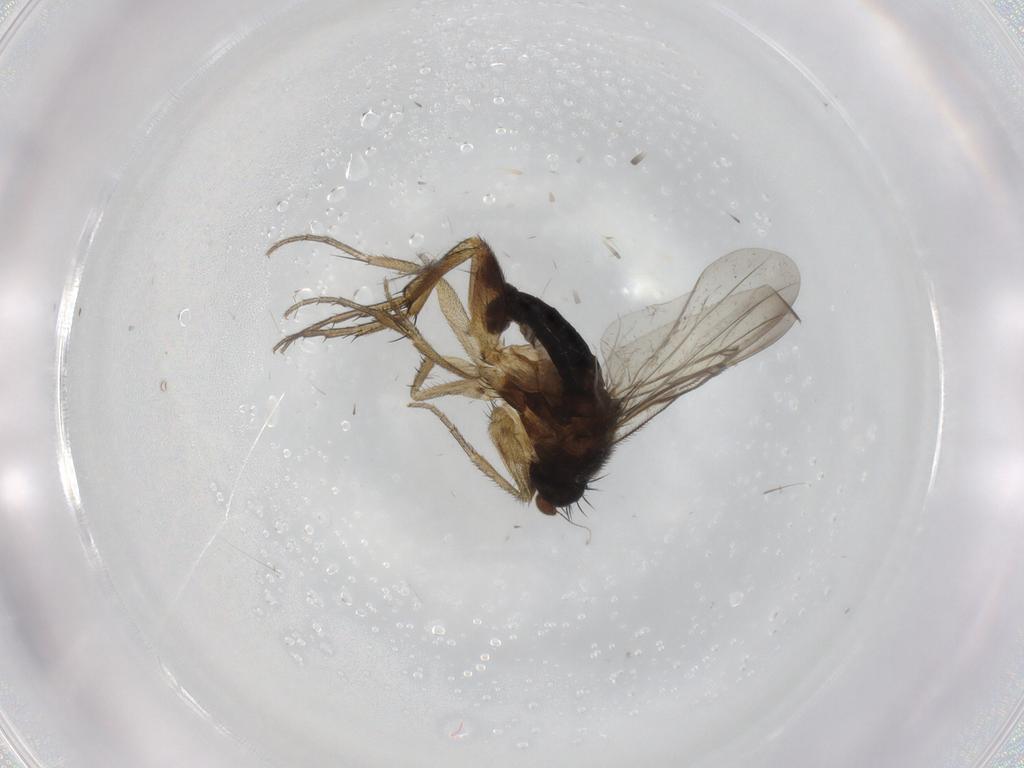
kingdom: Animalia
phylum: Arthropoda
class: Insecta
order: Diptera
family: Phoridae
